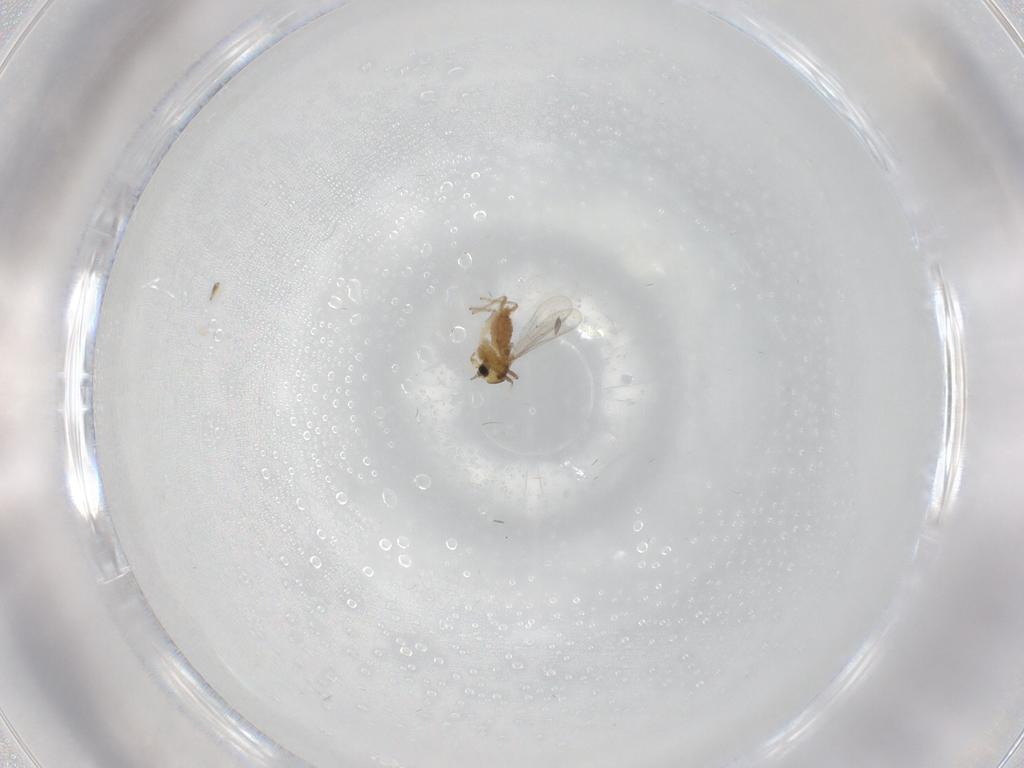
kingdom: Animalia
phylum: Arthropoda
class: Insecta
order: Diptera
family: Chironomidae
